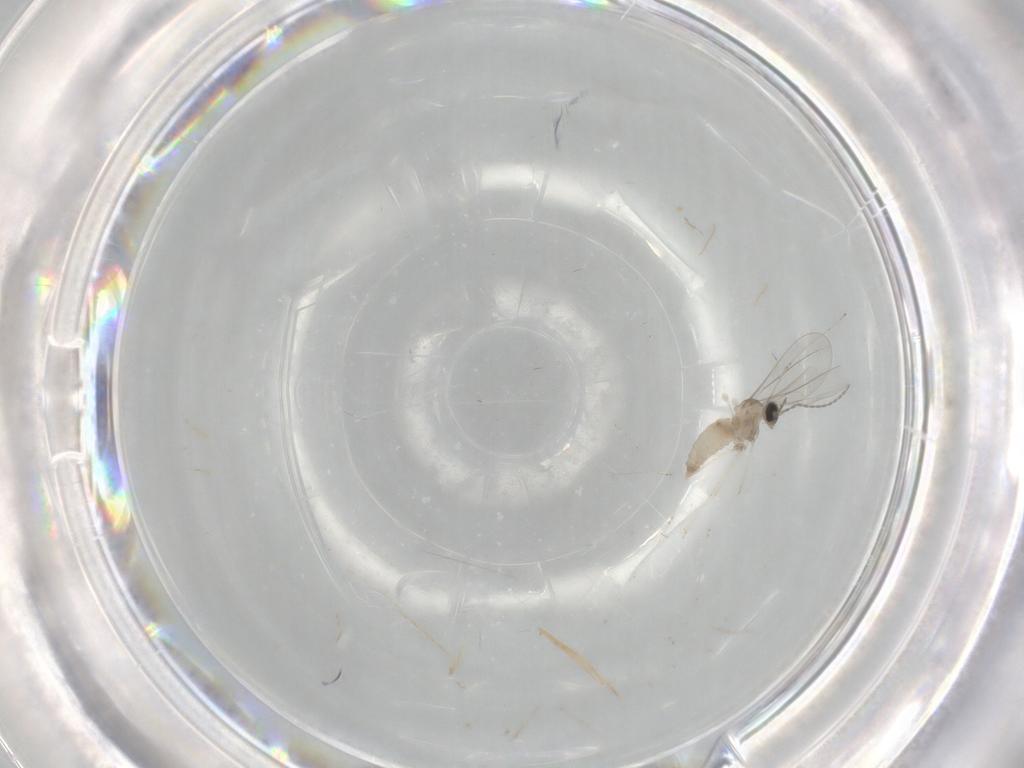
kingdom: Animalia
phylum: Arthropoda
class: Insecta
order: Diptera
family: Milichiidae
